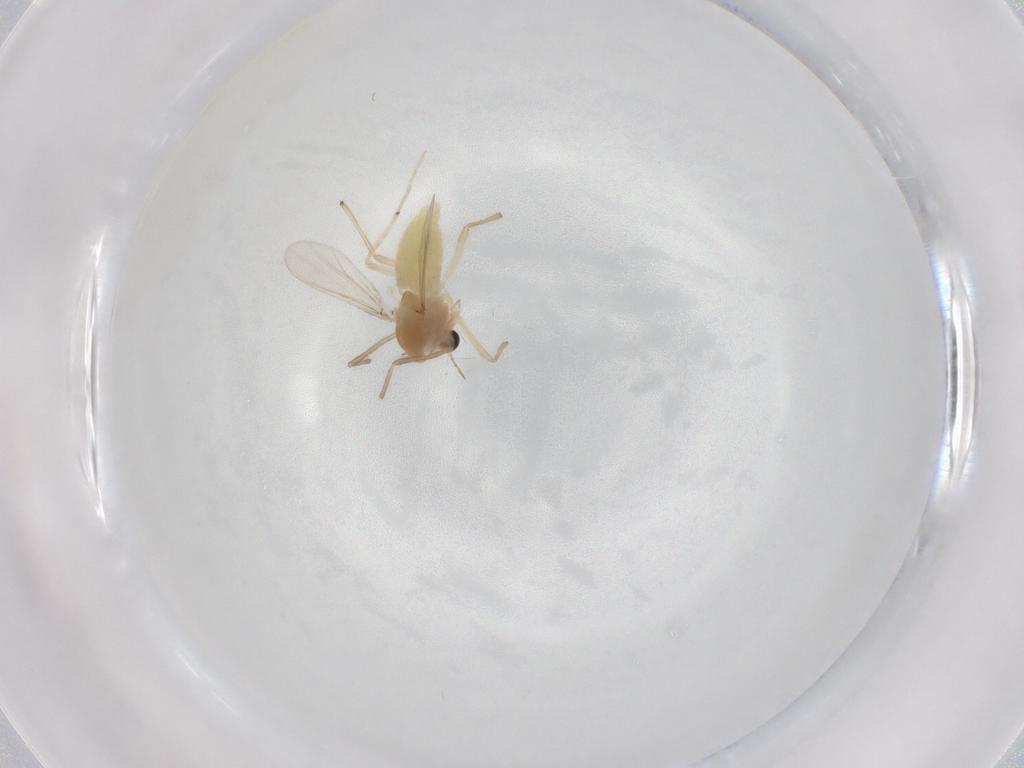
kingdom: Animalia
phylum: Arthropoda
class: Insecta
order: Diptera
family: Chironomidae
